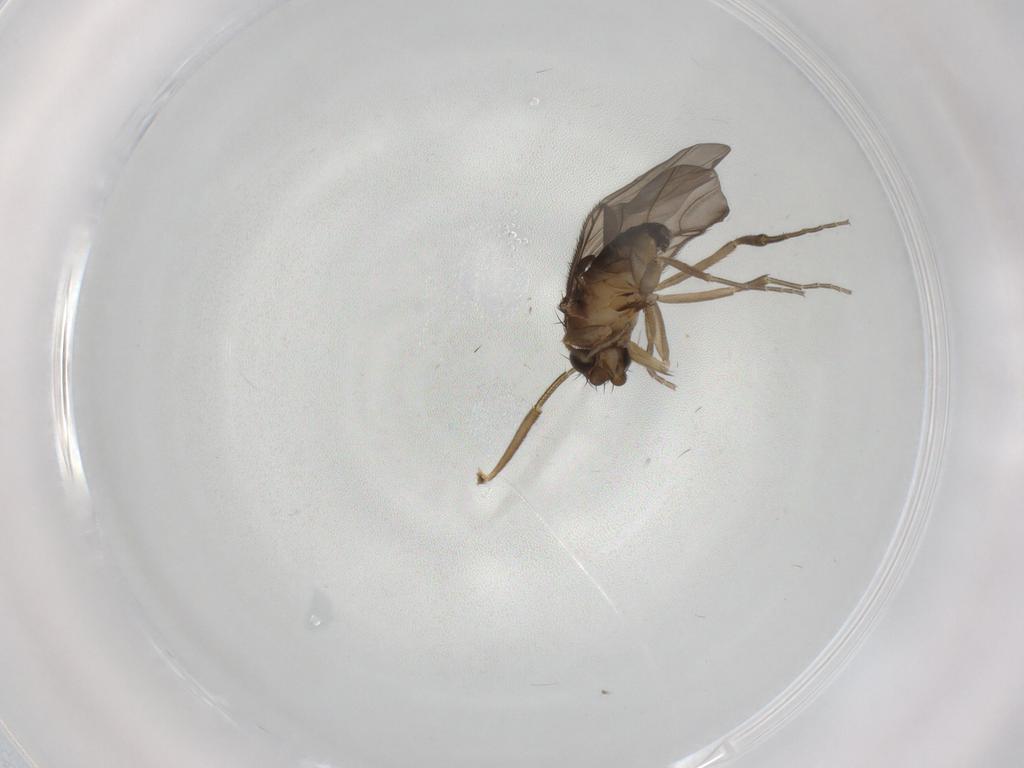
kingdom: Animalia
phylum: Arthropoda
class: Insecta
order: Diptera
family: Phoridae
